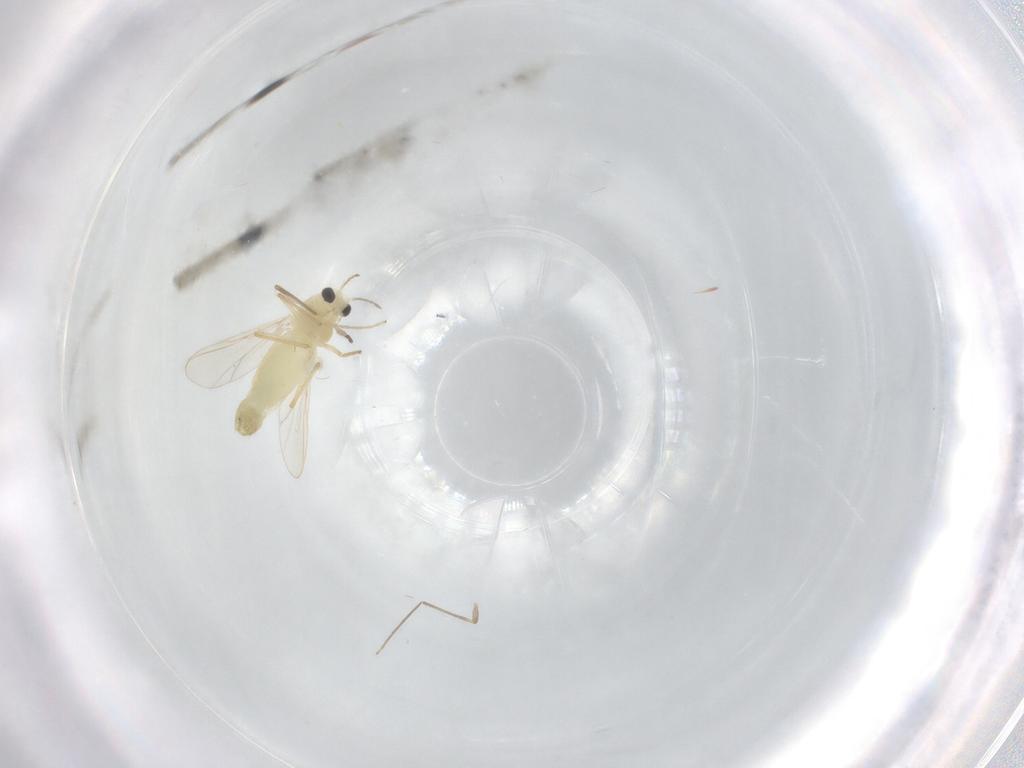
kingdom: Animalia
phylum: Arthropoda
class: Insecta
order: Diptera
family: Chironomidae
